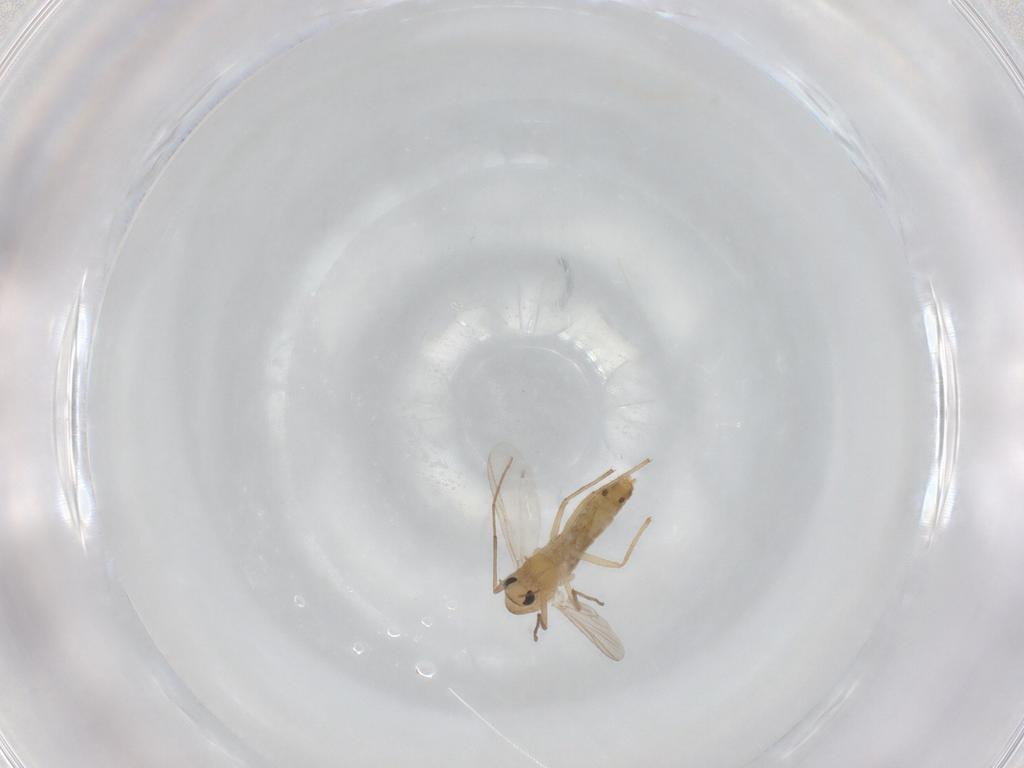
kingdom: Animalia
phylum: Arthropoda
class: Insecta
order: Diptera
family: Chironomidae
